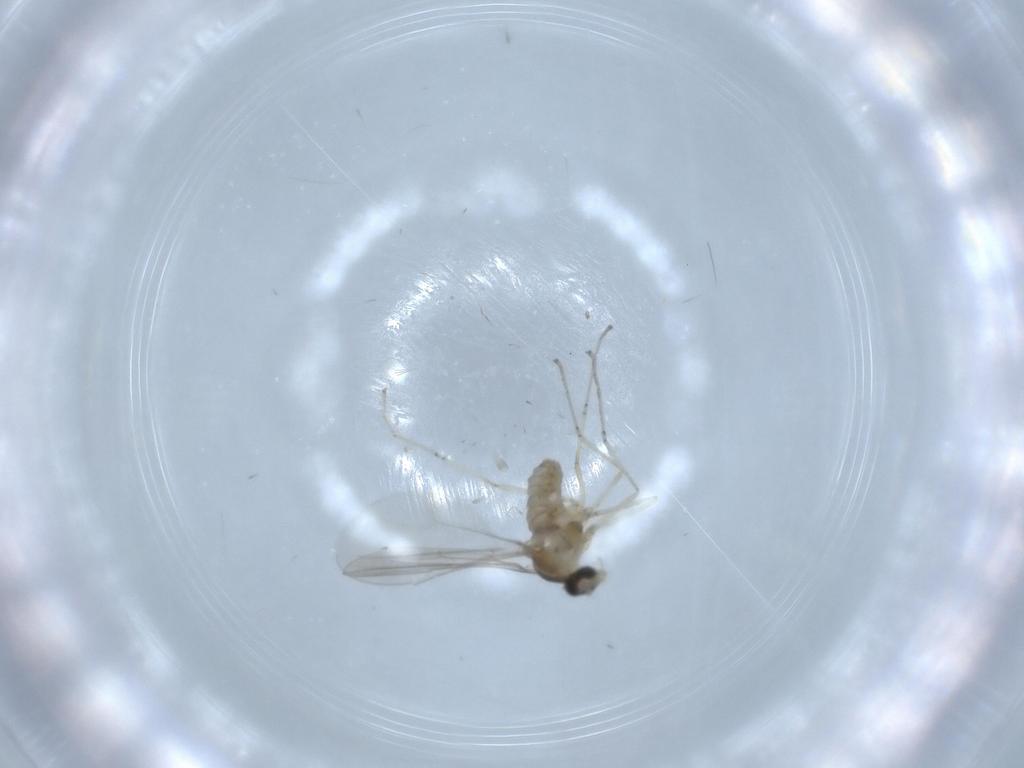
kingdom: Animalia
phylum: Arthropoda
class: Insecta
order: Diptera
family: Cecidomyiidae
